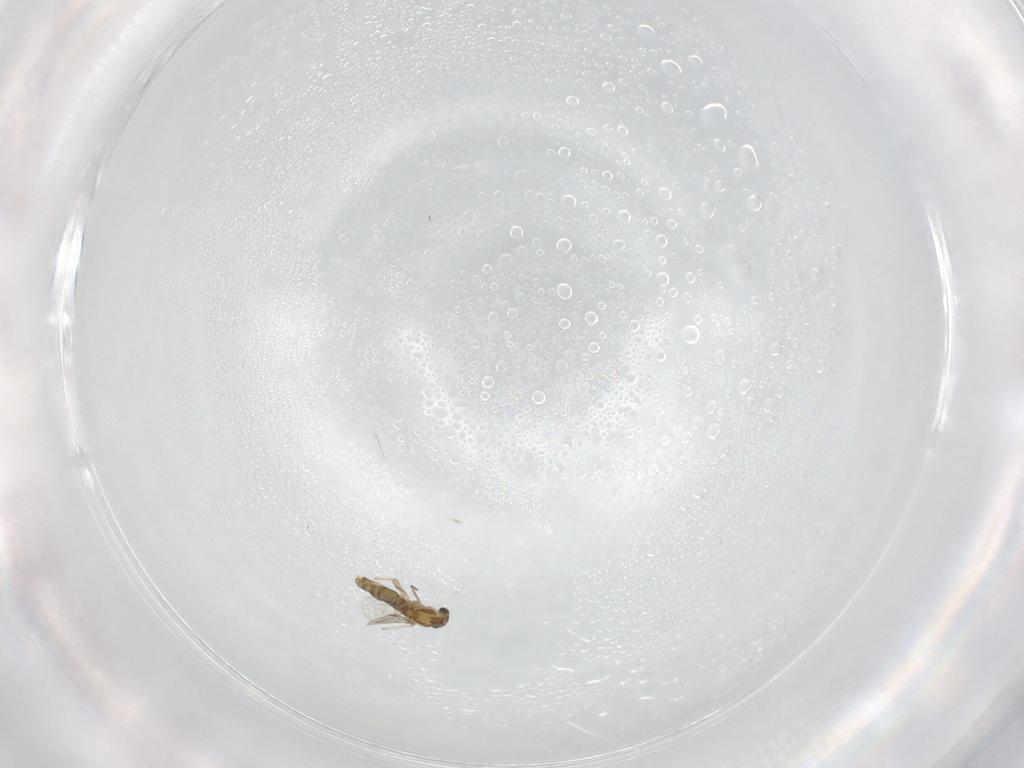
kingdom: Animalia
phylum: Arthropoda
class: Insecta
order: Diptera
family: Chironomidae
